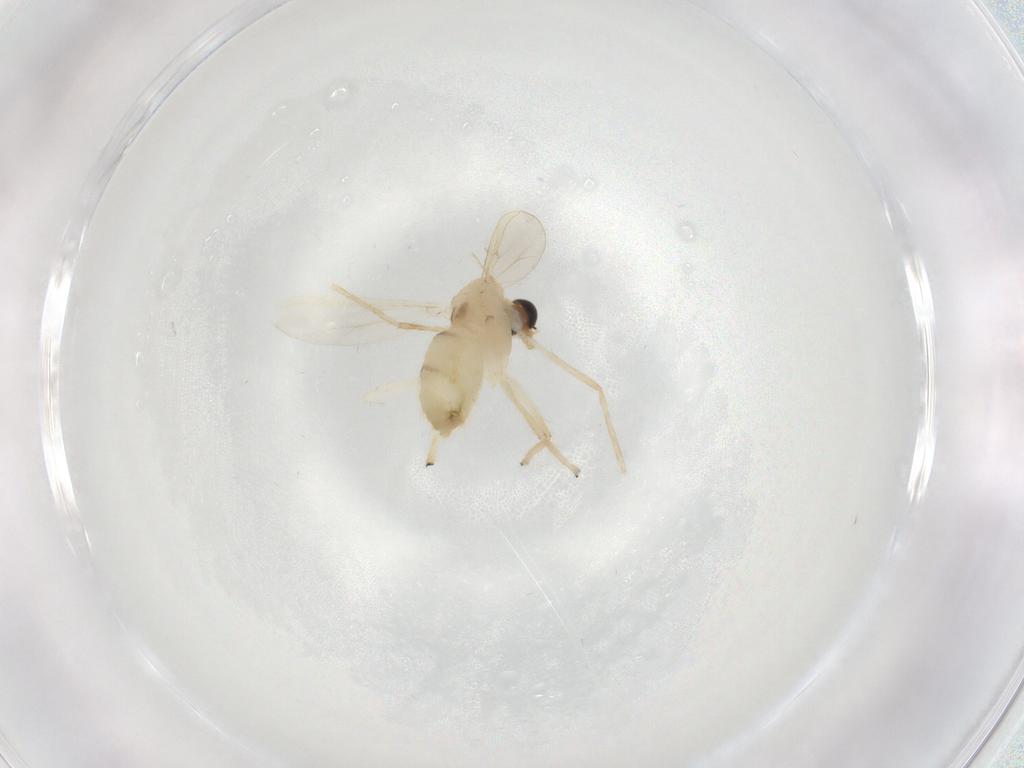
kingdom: Animalia
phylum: Arthropoda
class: Insecta
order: Diptera
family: Chironomidae
